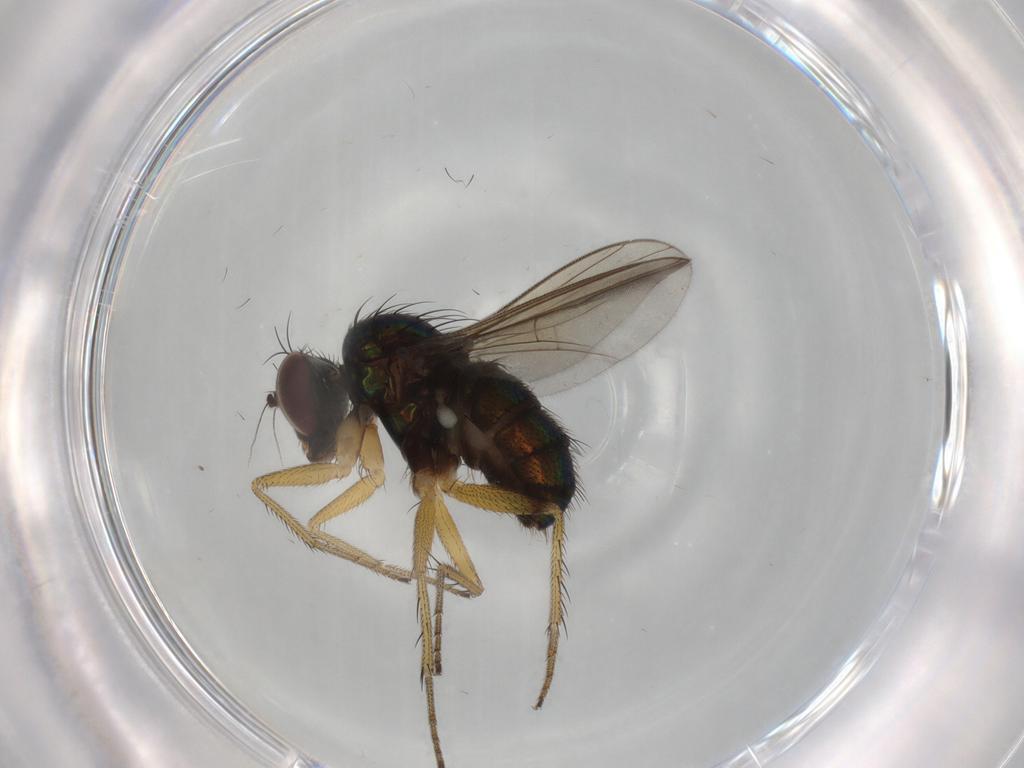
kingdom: Animalia
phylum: Arthropoda
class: Insecta
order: Diptera
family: Dolichopodidae
